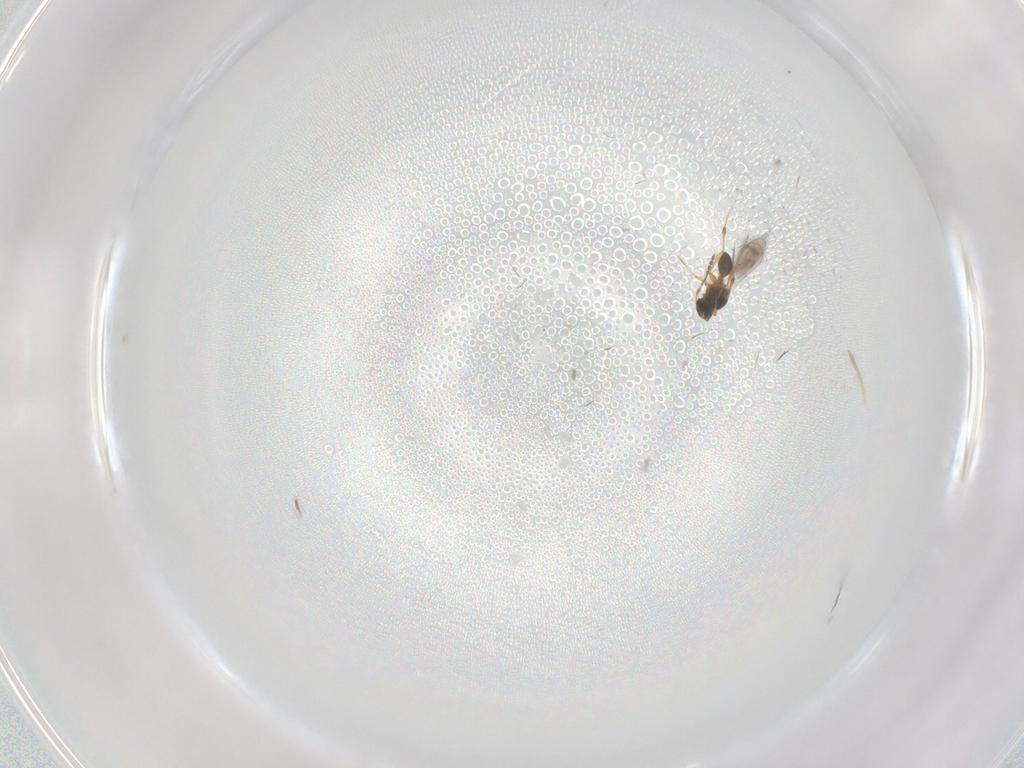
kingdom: Animalia
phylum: Arthropoda
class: Insecta
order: Hymenoptera
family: Platygastridae
